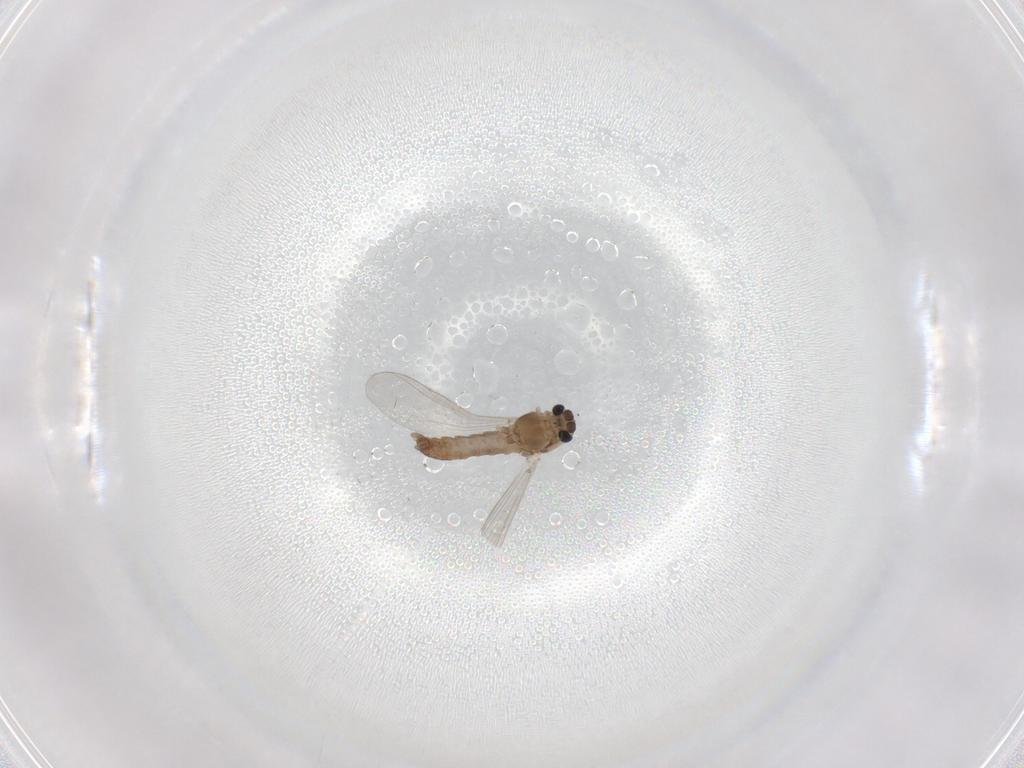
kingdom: Animalia
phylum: Arthropoda
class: Insecta
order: Diptera
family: Chironomidae
